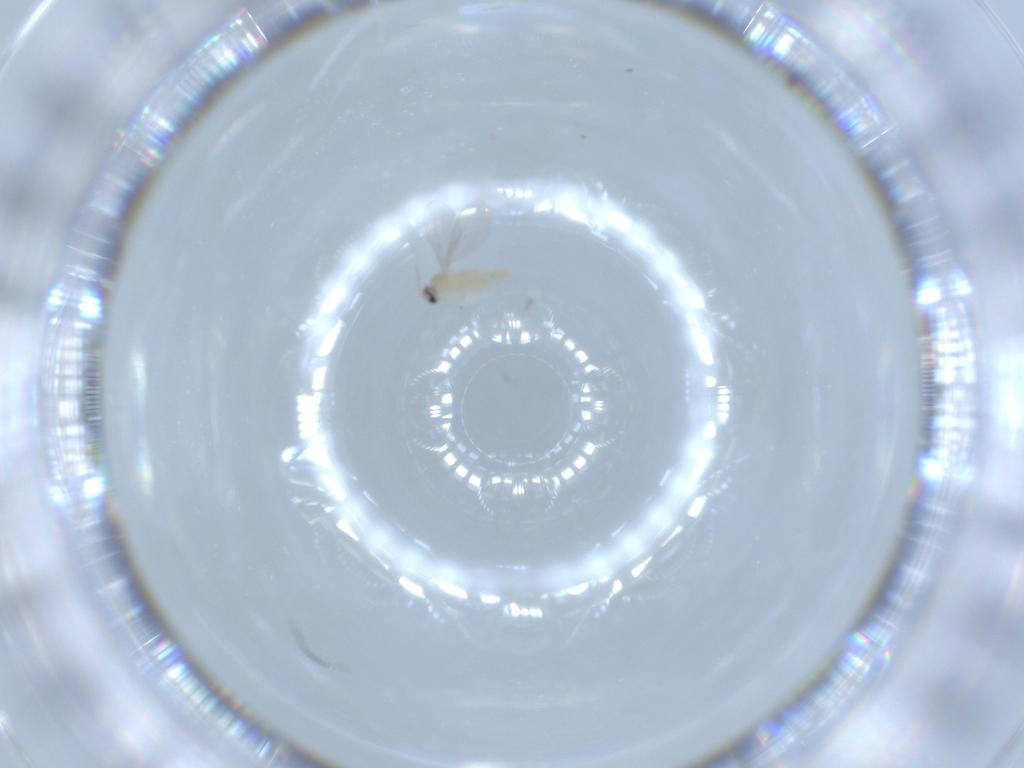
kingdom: Animalia
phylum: Arthropoda
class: Insecta
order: Diptera
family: Cecidomyiidae
